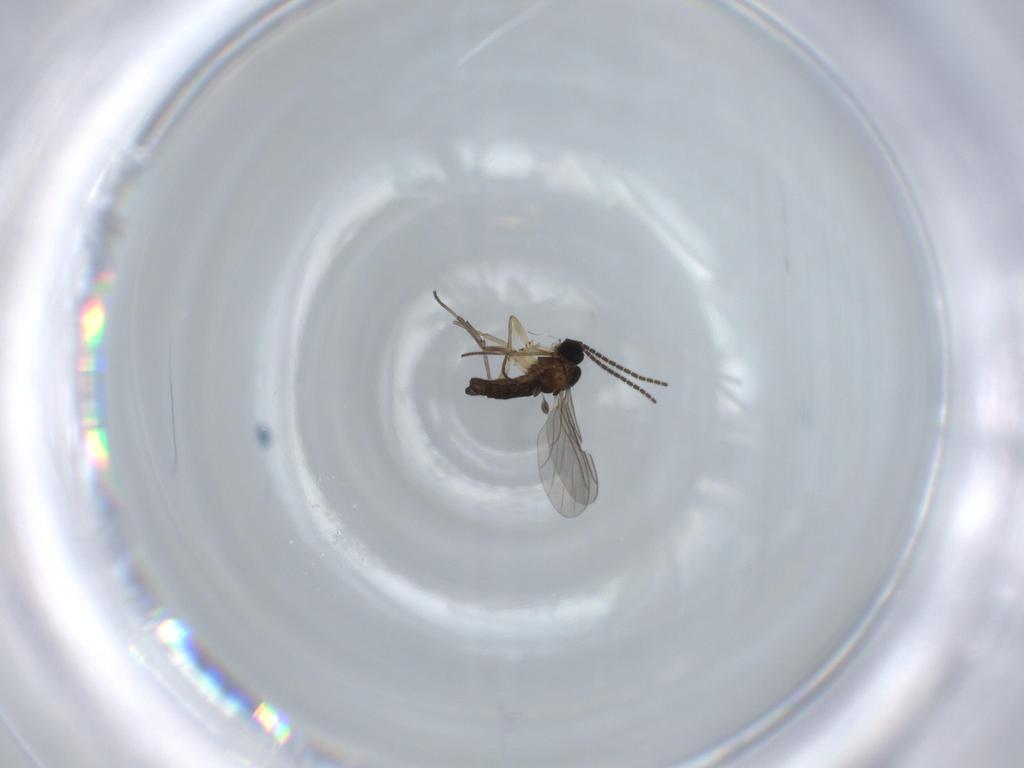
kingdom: Animalia
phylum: Arthropoda
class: Insecta
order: Diptera
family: Sciaridae
